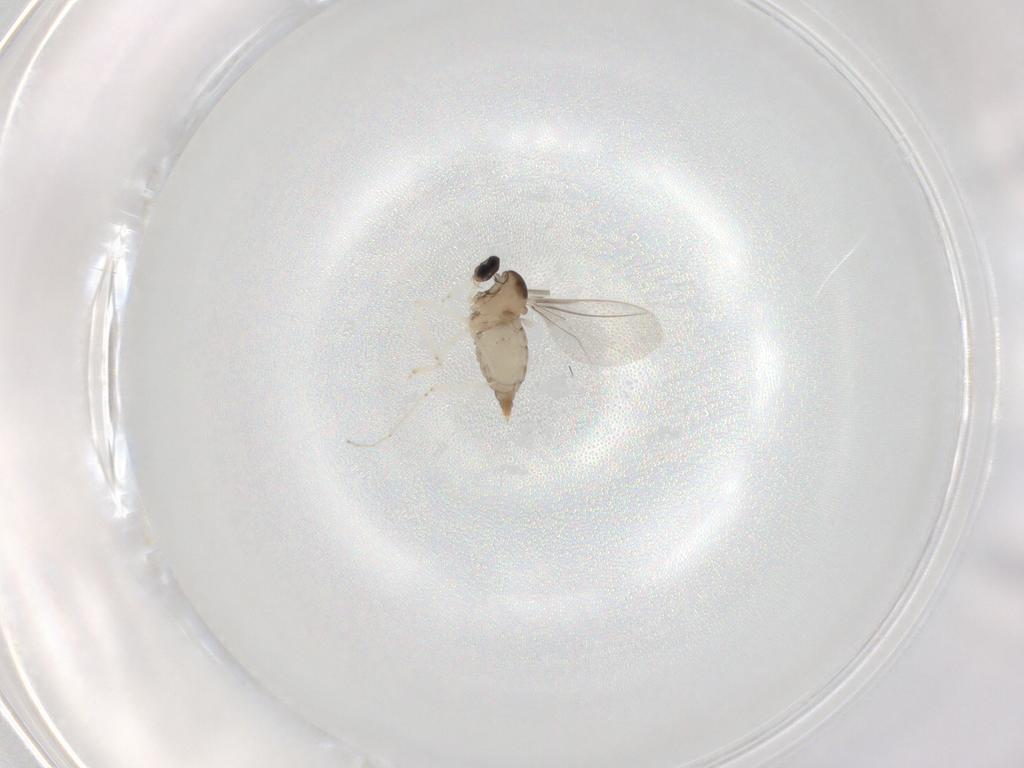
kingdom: Animalia
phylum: Arthropoda
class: Insecta
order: Diptera
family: Cecidomyiidae
